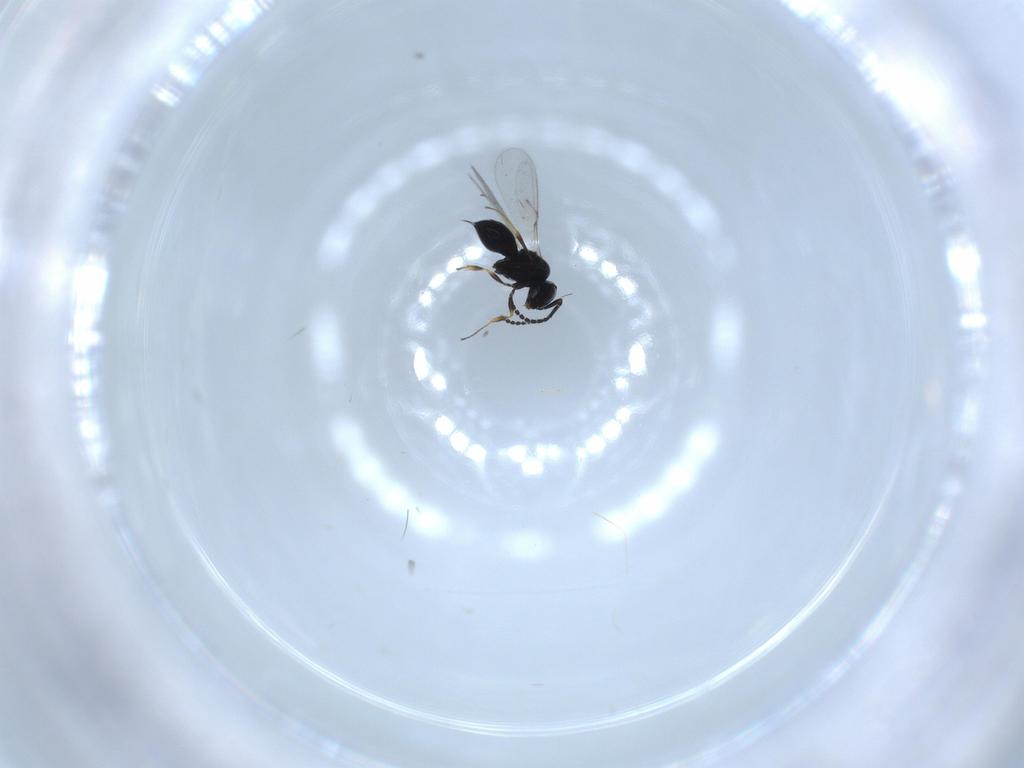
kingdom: Animalia
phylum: Arthropoda
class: Insecta
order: Hymenoptera
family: Scelionidae
